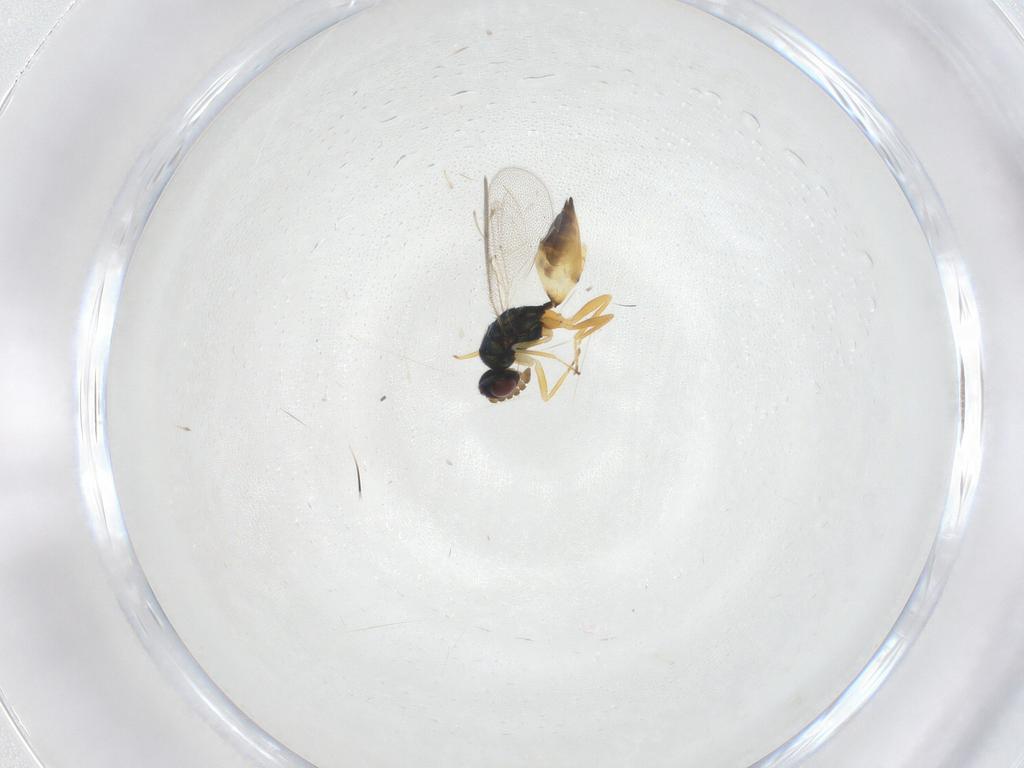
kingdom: Animalia
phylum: Arthropoda
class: Insecta
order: Hymenoptera
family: Eulophidae
